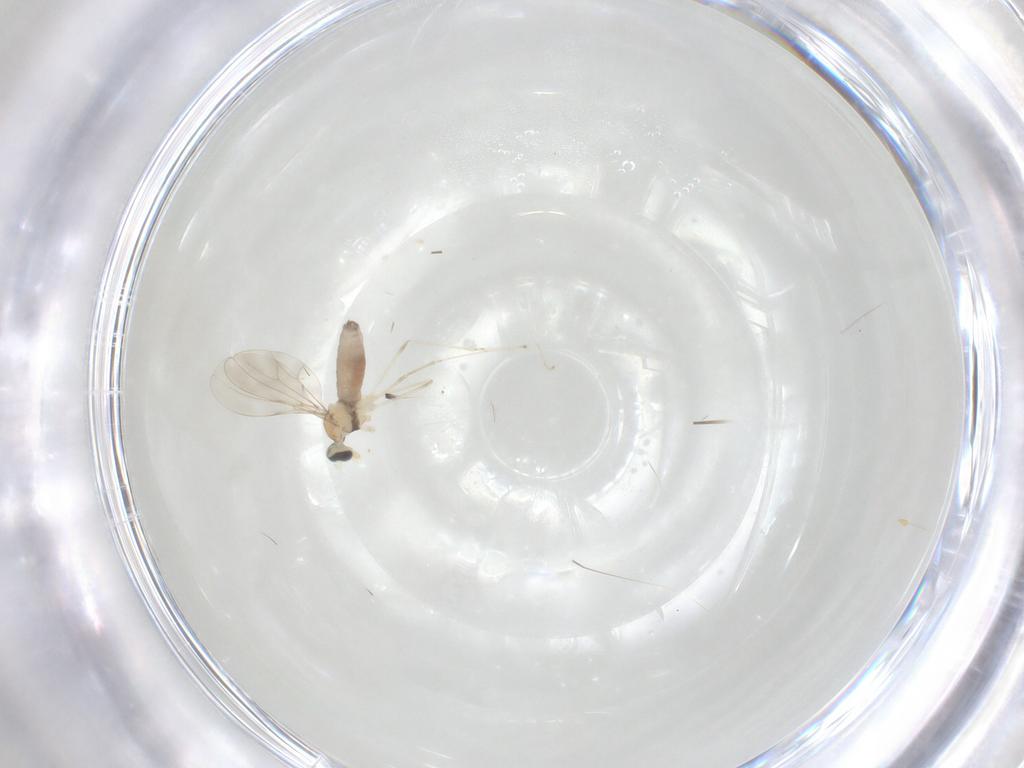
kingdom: Animalia
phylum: Arthropoda
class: Insecta
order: Diptera
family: Cecidomyiidae
